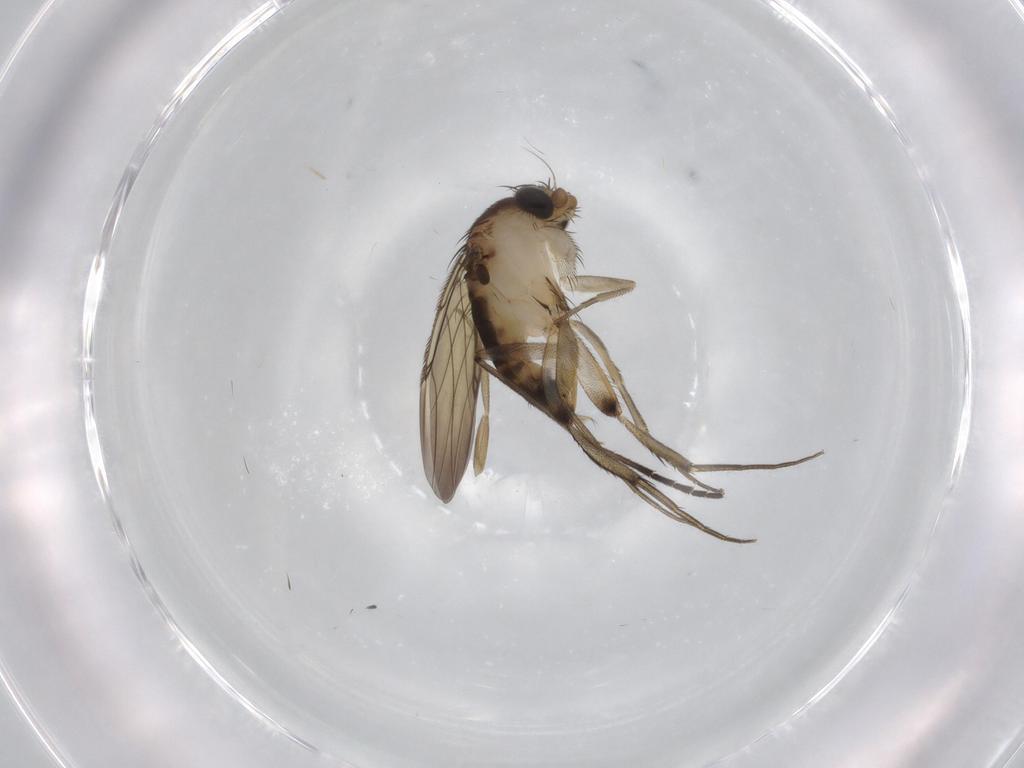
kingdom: Animalia
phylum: Arthropoda
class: Insecta
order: Diptera
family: Phoridae
